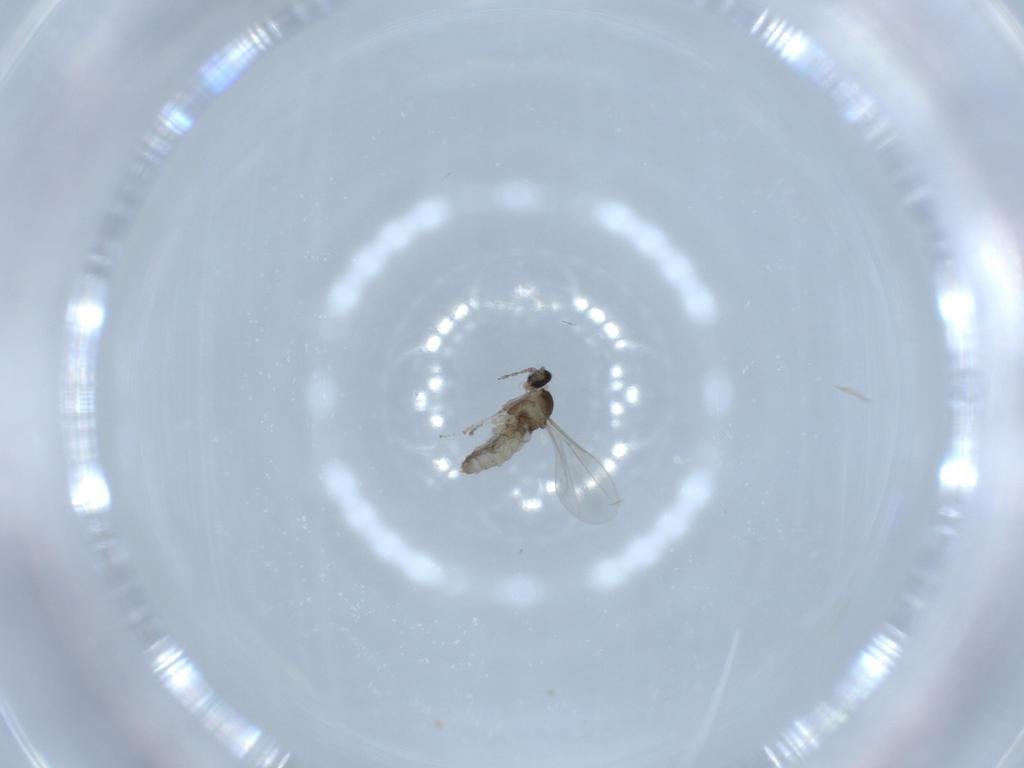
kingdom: Animalia
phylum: Arthropoda
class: Insecta
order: Diptera
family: Cecidomyiidae
